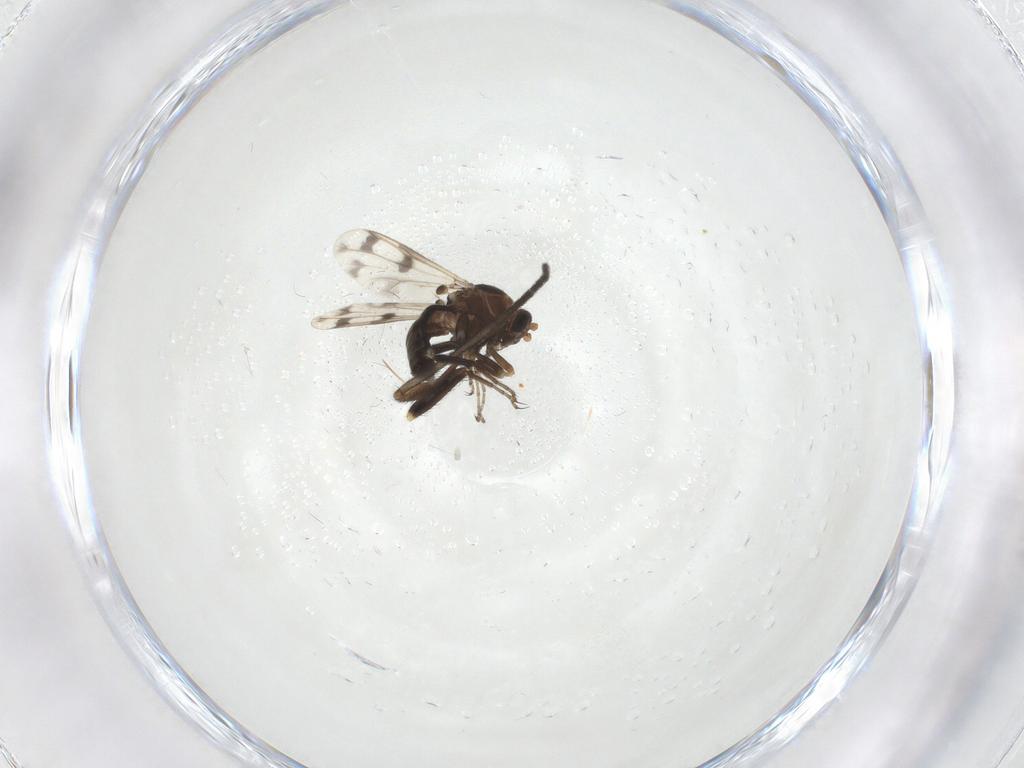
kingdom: Animalia
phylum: Arthropoda
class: Insecta
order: Diptera
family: Ceratopogonidae
